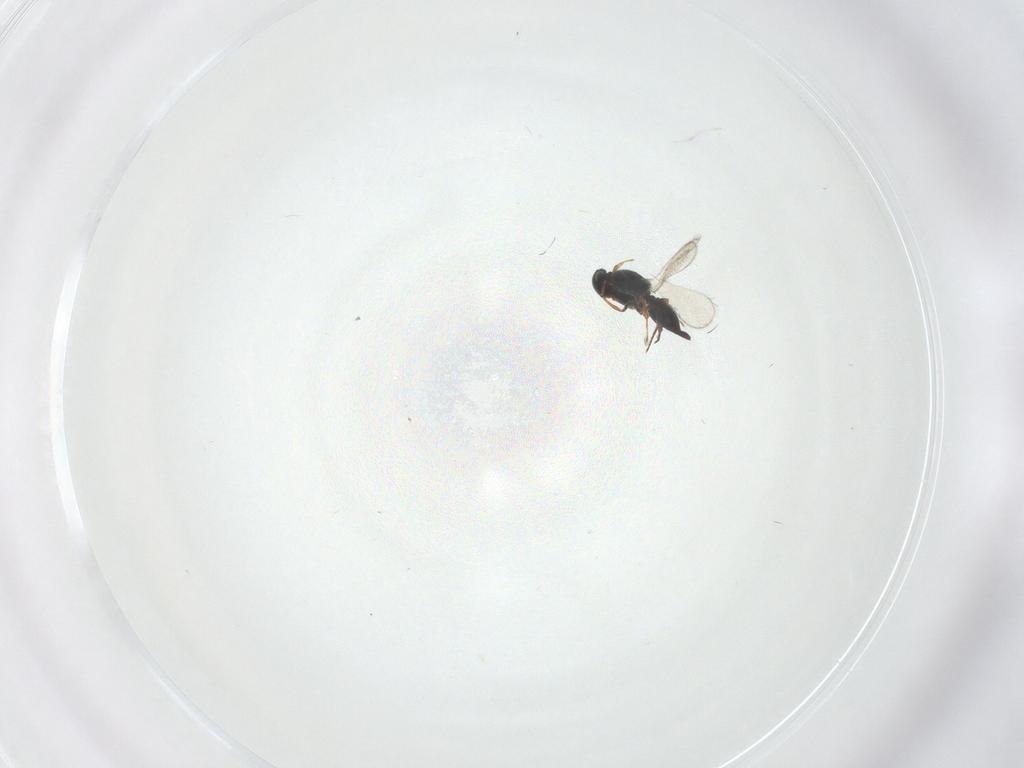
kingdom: Animalia
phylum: Arthropoda
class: Insecta
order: Hymenoptera
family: Platygastridae
